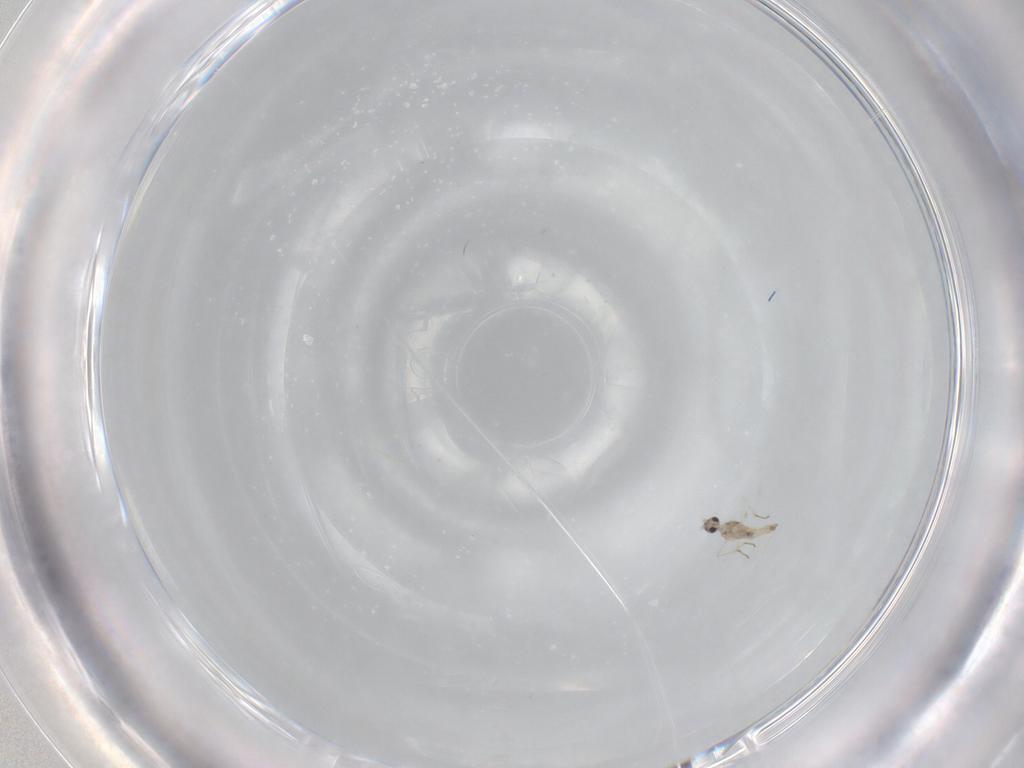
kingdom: Animalia
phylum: Arthropoda
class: Insecta
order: Diptera
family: Cecidomyiidae
